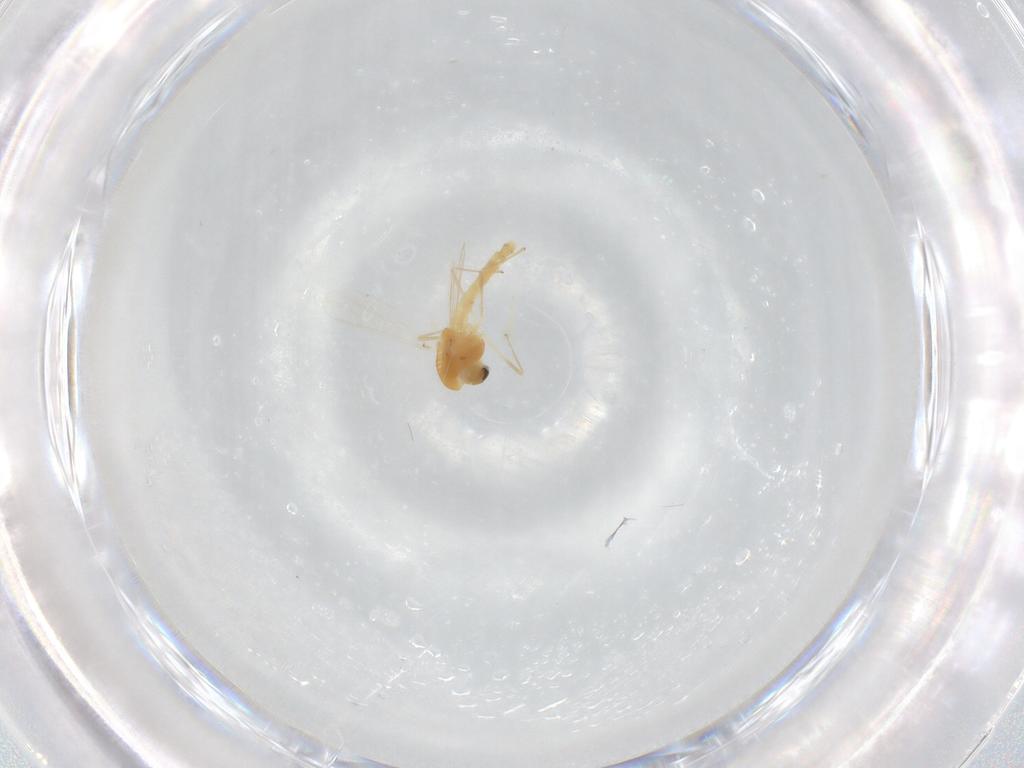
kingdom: Animalia
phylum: Arthropoda
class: Insecta
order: Diptera
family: Chironomidae
